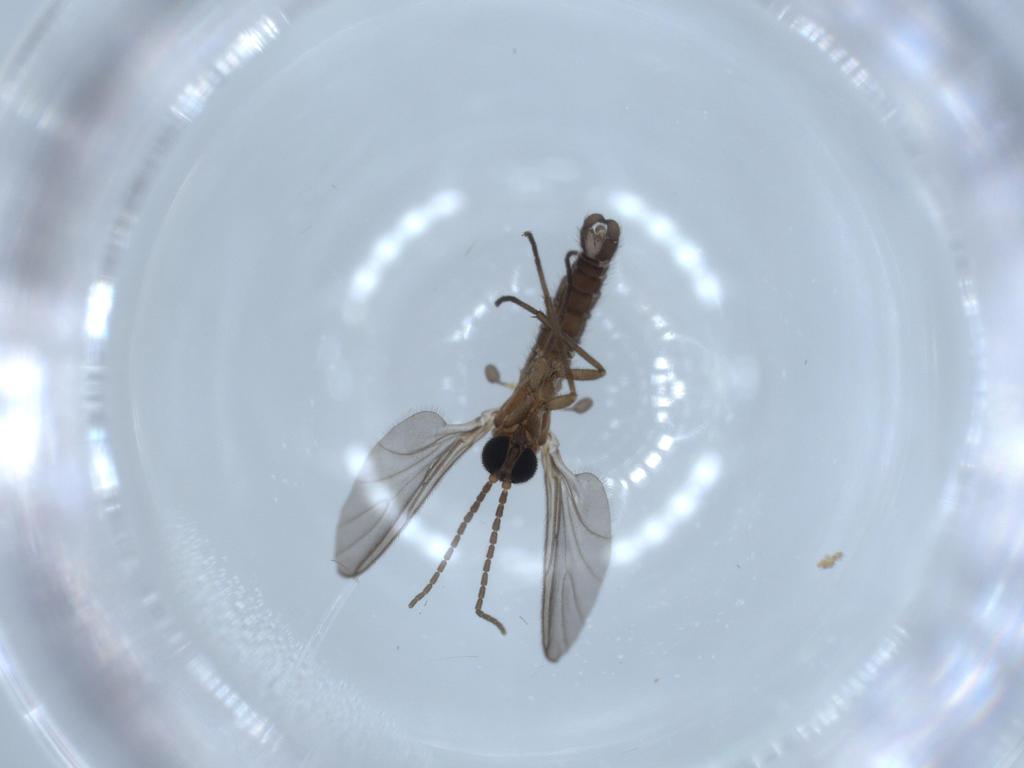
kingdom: Animalia
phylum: Arthropoda
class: Insecta
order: Diptera
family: Sciaridae
